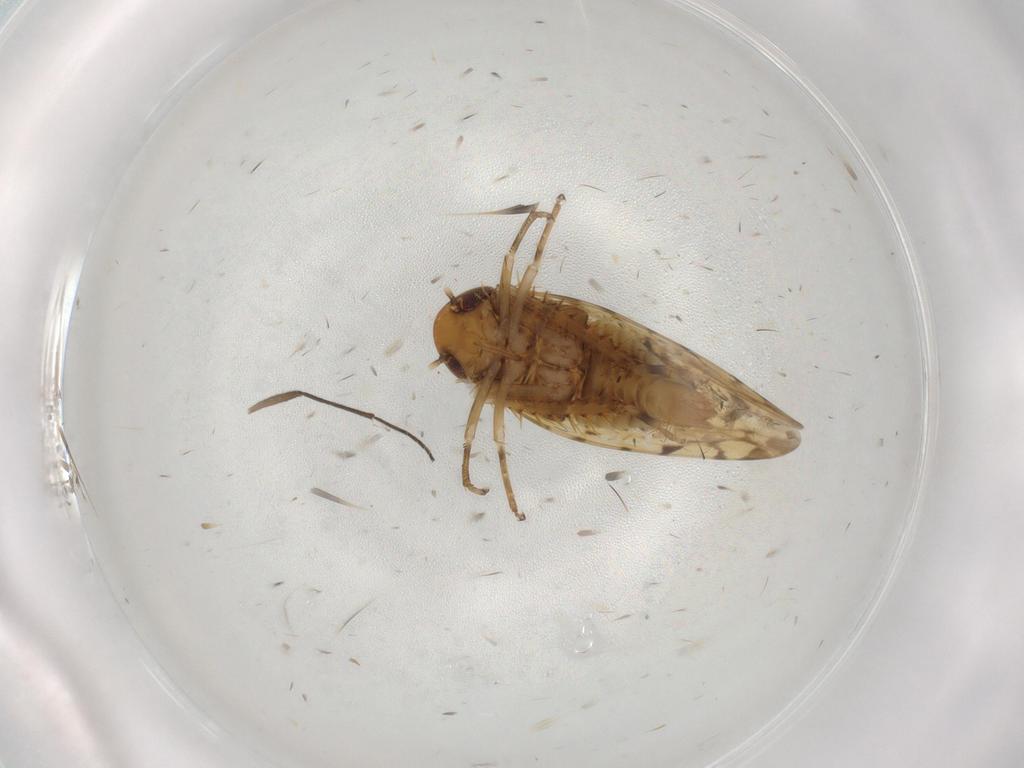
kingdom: Animalia
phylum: Arthropoda
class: Insecta
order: Hemiptera
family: Cicadellidae
